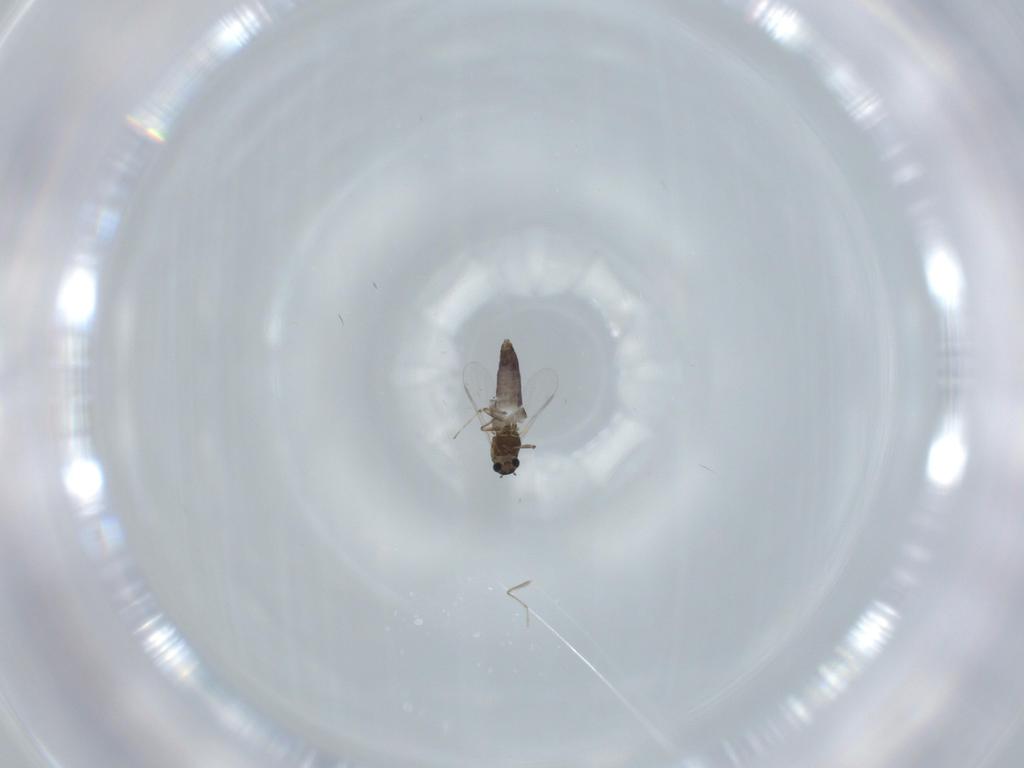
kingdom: Animalia
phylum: Arthropoda
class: Insecta
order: Diptera
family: Chironomidae
